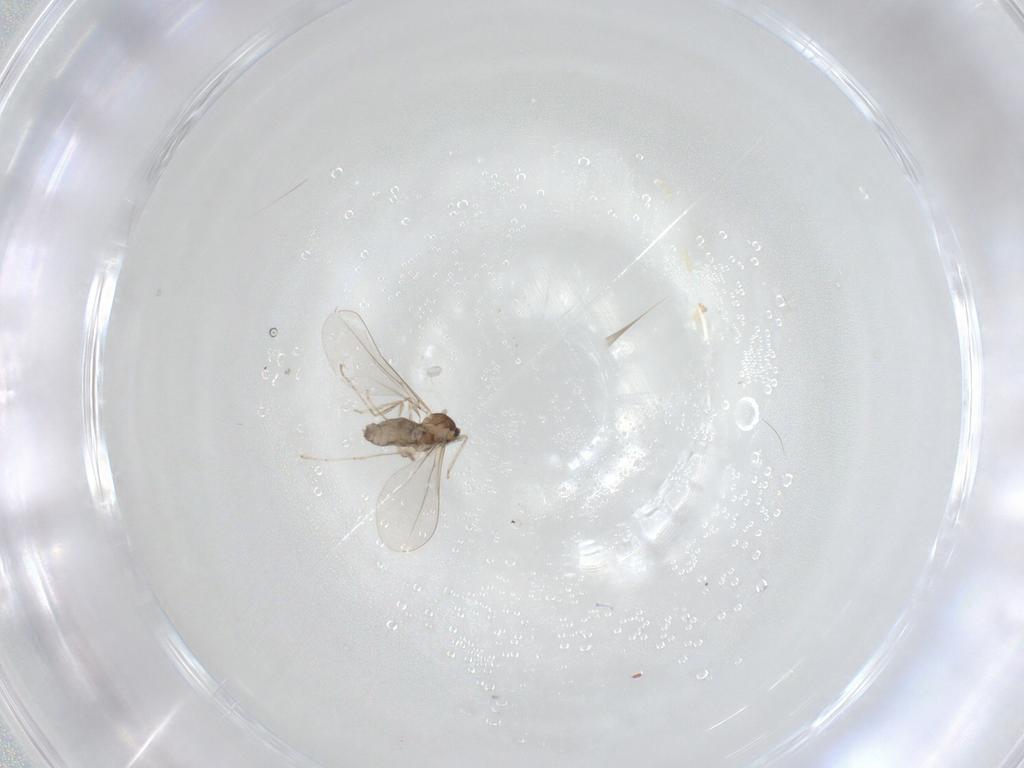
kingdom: Animalia
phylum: Arthropoda
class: Insecta
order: Diptera
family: Cecidomyiidae
